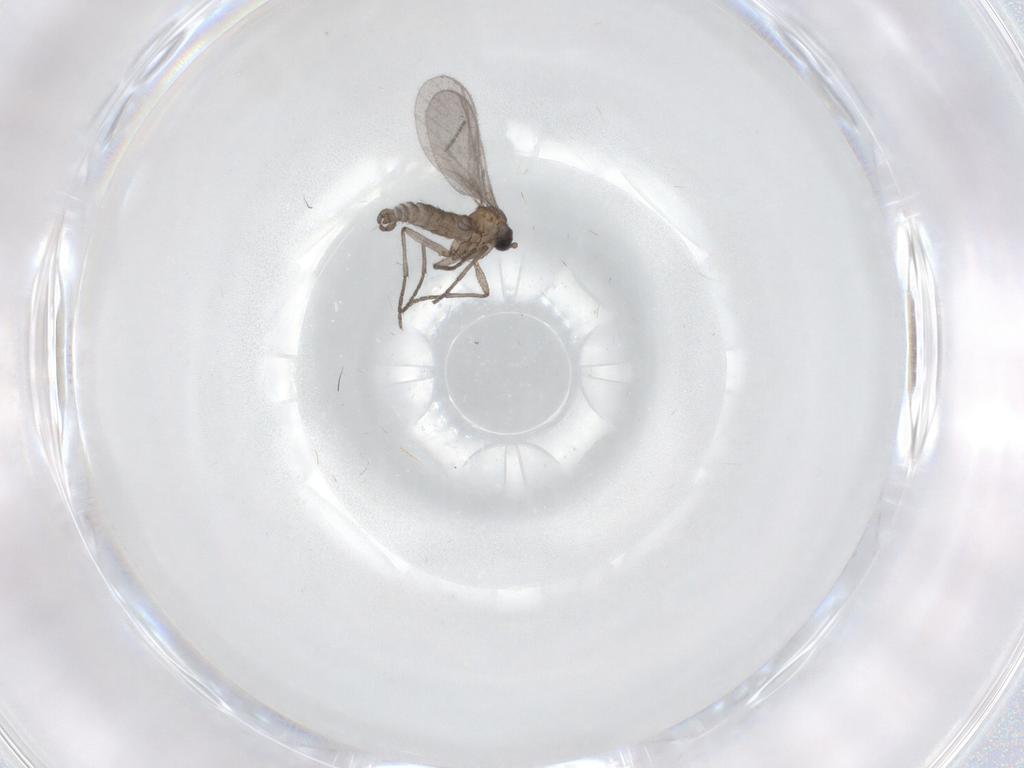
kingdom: Animalia
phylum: Arthropoda
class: Insecta
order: Diptera
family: Sciaridae
